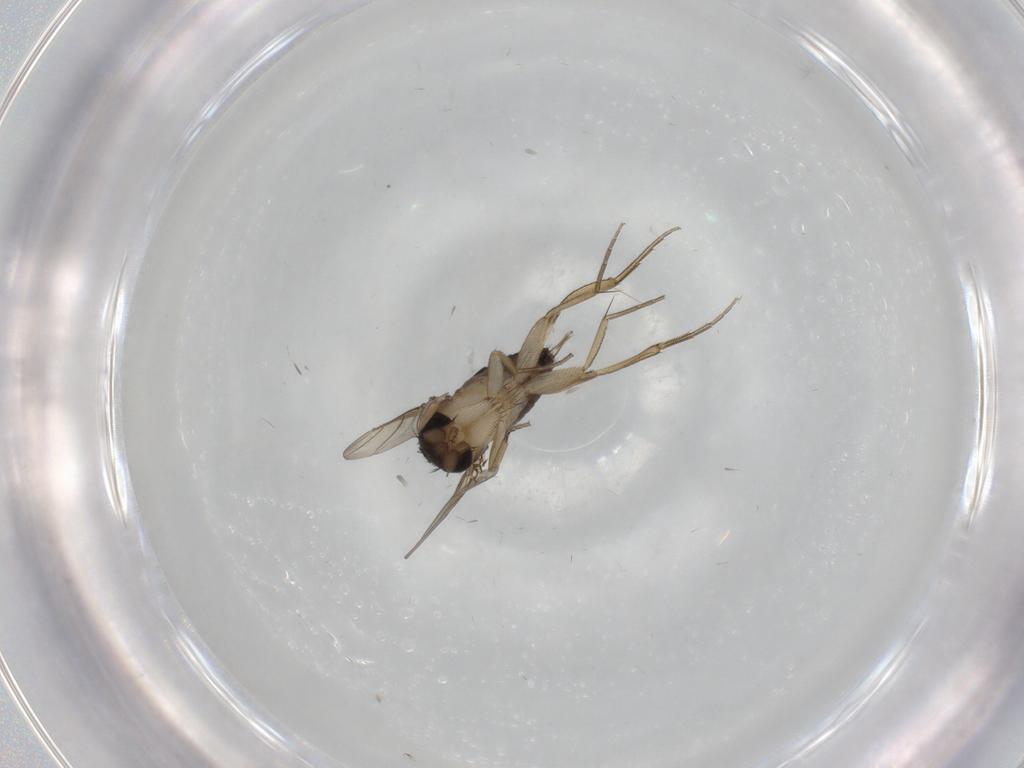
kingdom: Animalia
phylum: Arthropoda
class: Insecta
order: Diptera
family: Phoridae
